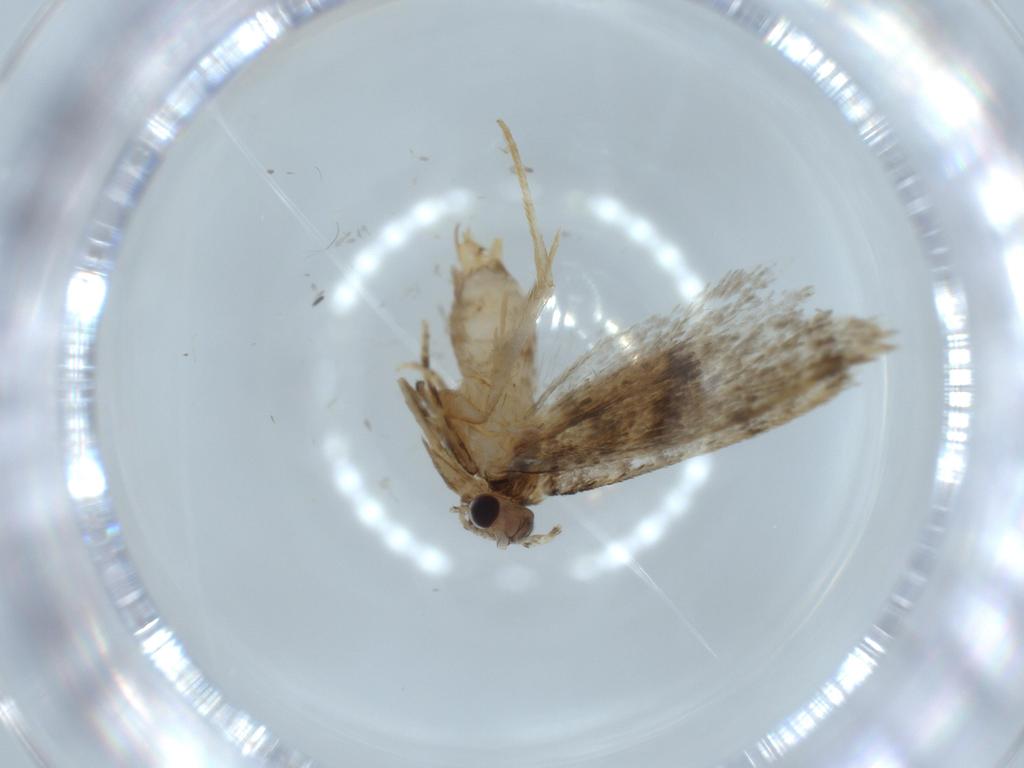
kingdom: Animalia
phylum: Arthropoda
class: Insecta
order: Lepidoptera
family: Tineidae
